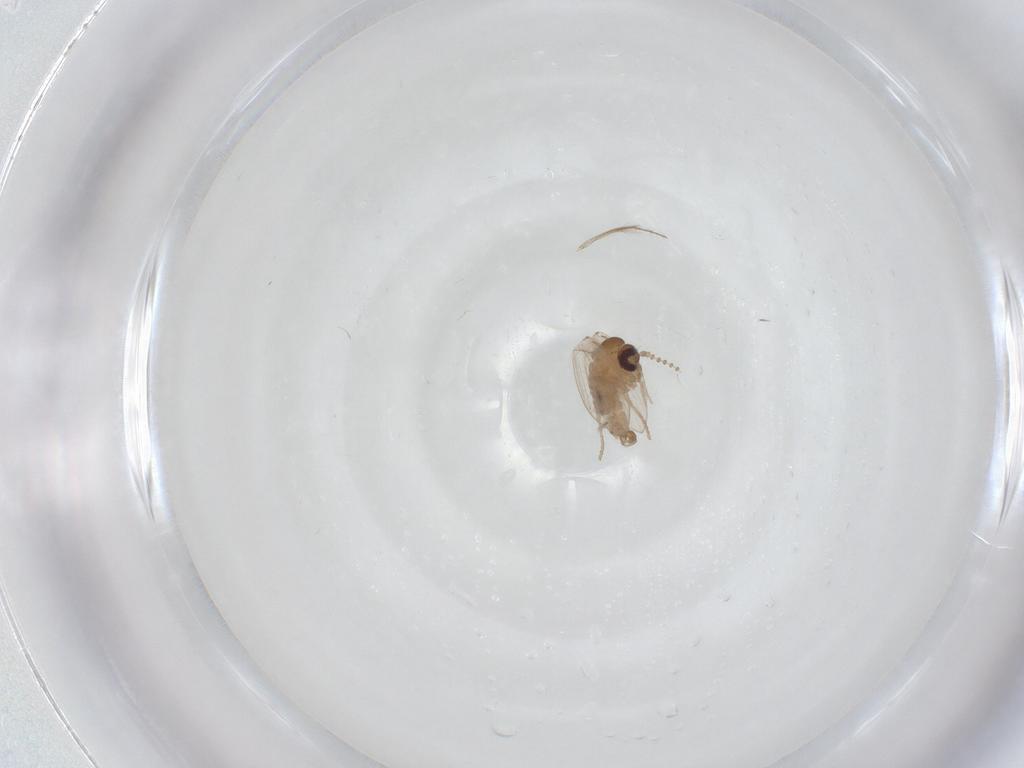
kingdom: Animalia
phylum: Arthropoda
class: Insecta
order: Diptera
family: Psychodidae
